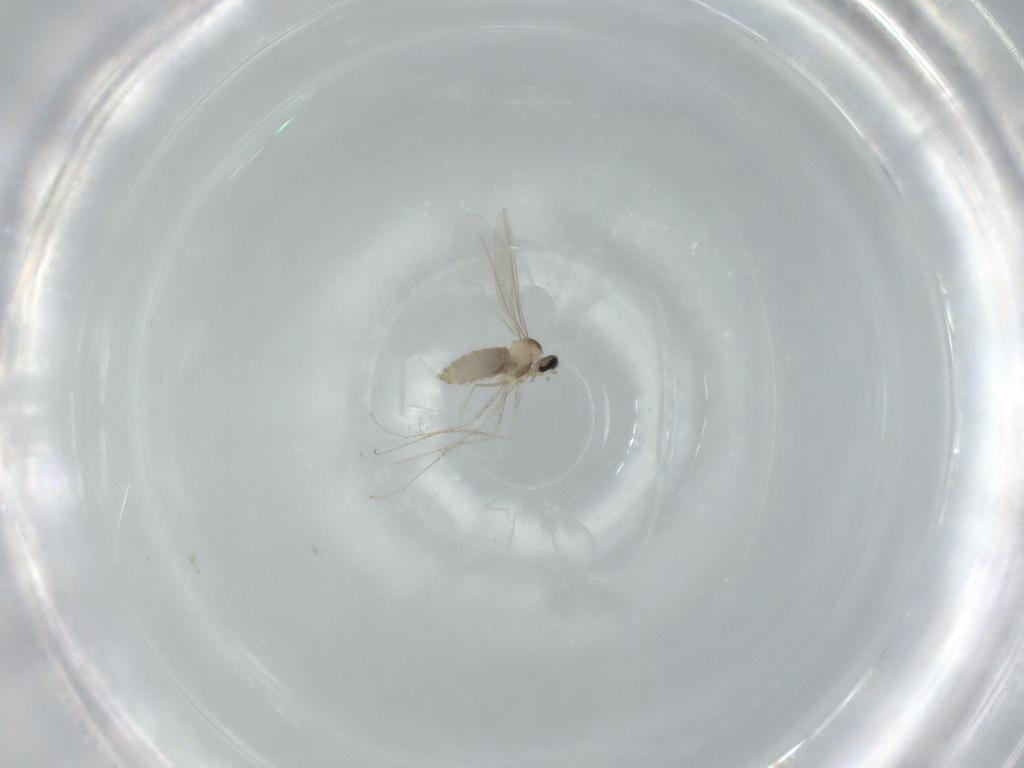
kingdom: Animalia
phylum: Arthropoda
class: Insecta
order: Diptera
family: Cecidomyiidae
